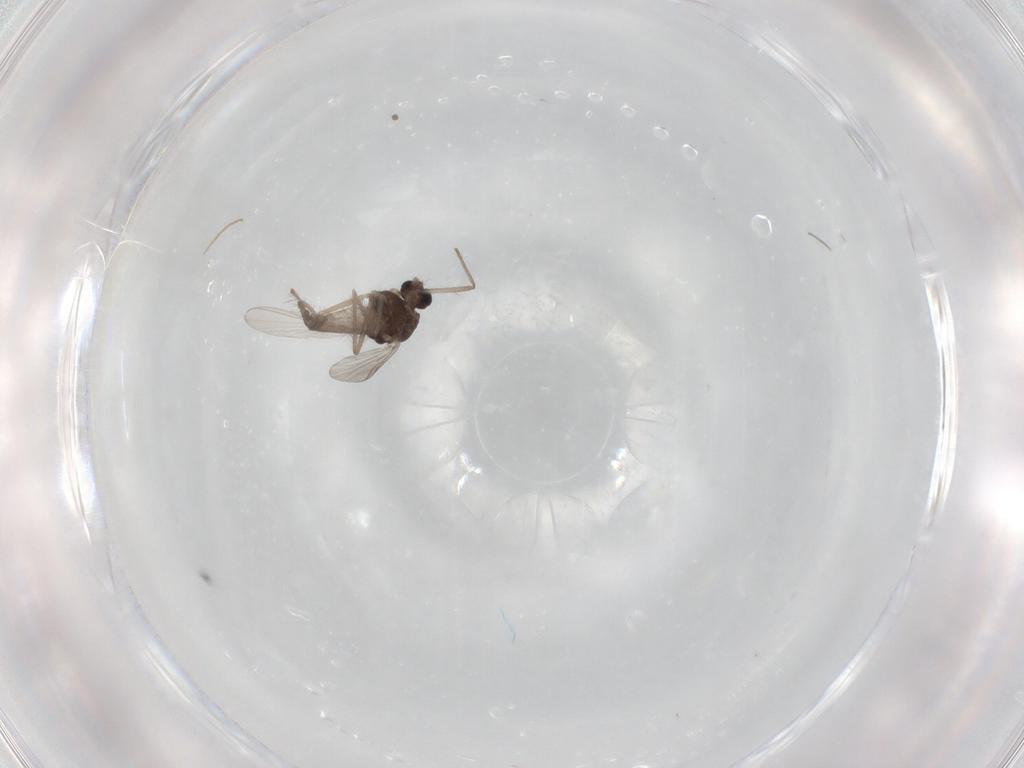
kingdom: Animalia
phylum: Arthropoda
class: Insecta
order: Diptera
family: Chironomidae
